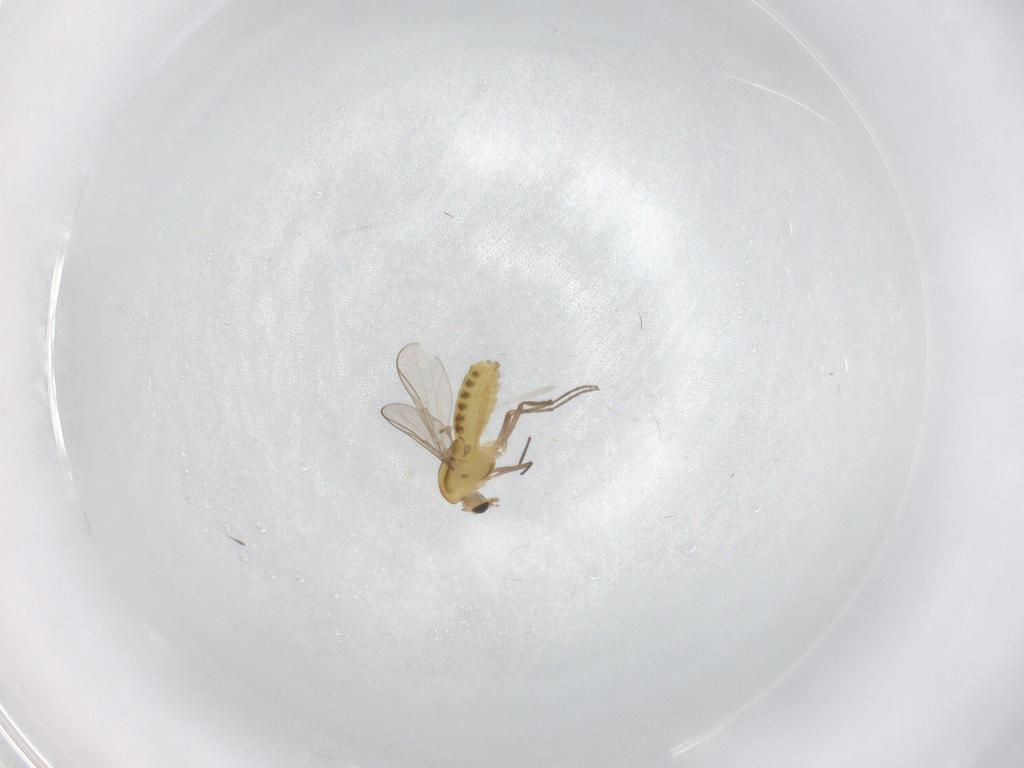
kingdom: Animalia
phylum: Arthropoda
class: Insecta
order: Diptera
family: Chironomidae
